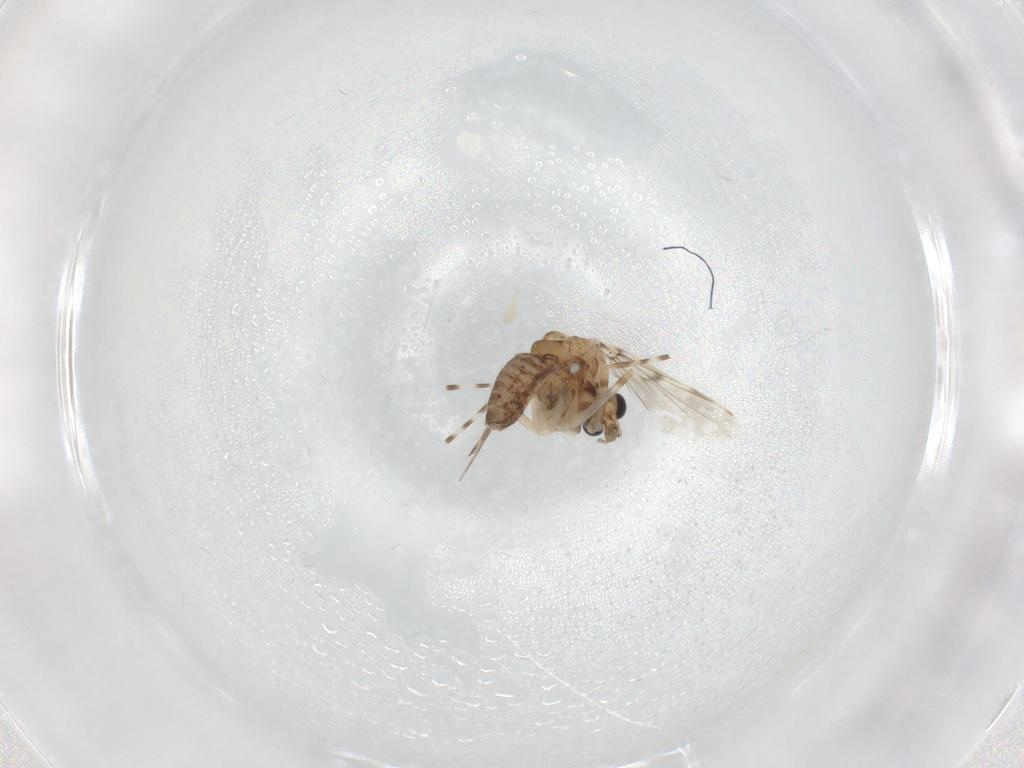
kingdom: Animalia
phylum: Arthropoda
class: Insecta
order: Diptera
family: Chironomidae
